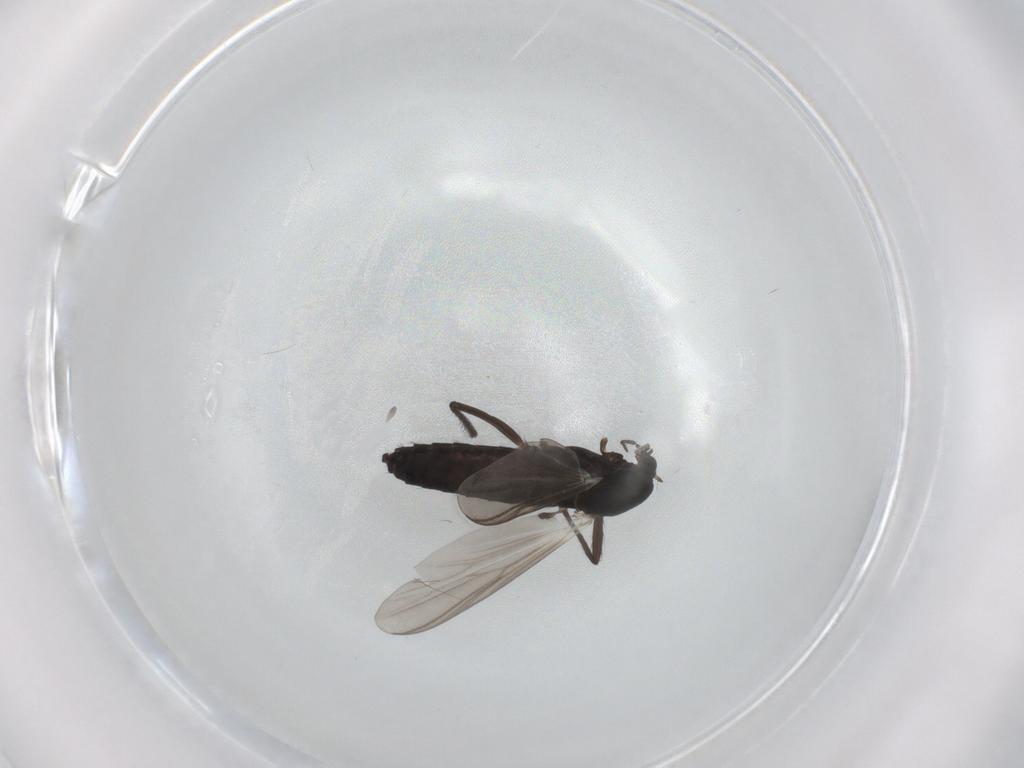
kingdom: Animalia
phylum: Arthropoda
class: Insecta
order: Diptera
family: Chironomidae
